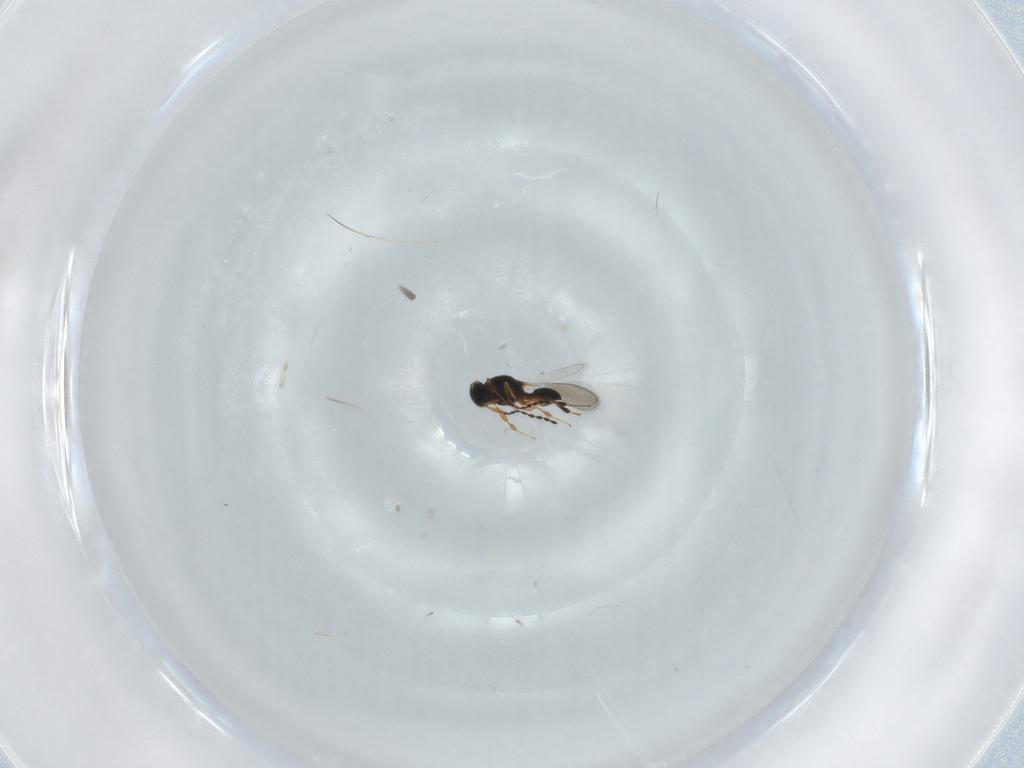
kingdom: Animalia
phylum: Arthropoda
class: Insecta
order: Hymenoptera
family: Platygastridae
